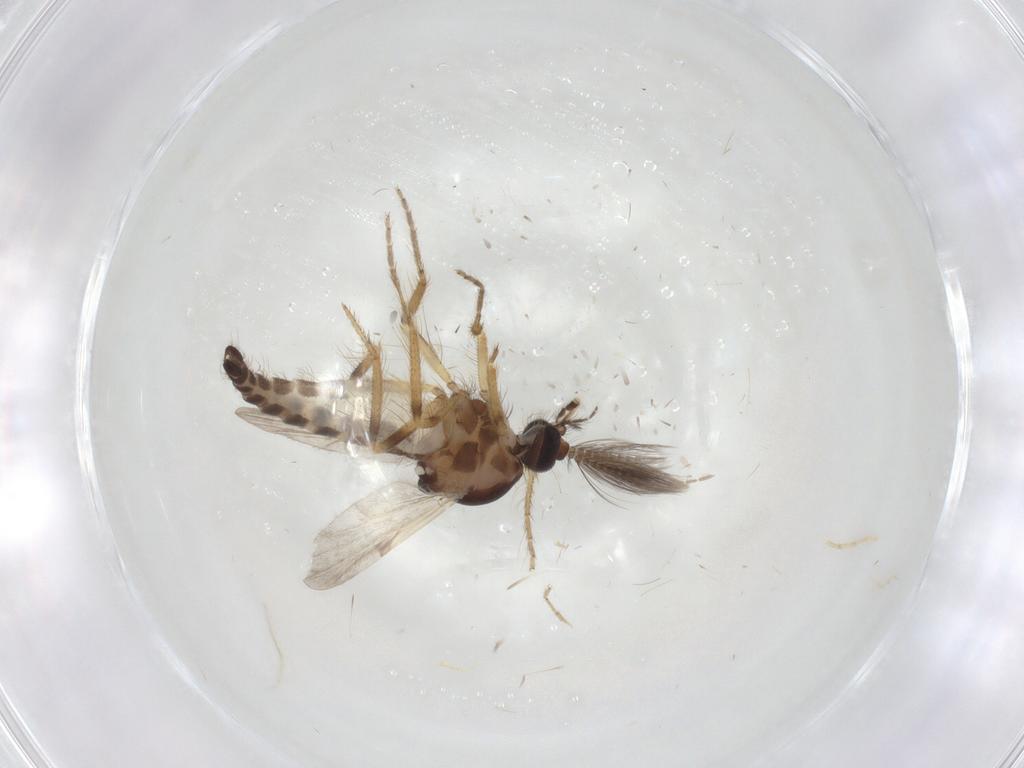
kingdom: Animalia
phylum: Arthropoda
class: Insecta
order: Diptera
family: Ceratopogonidae
